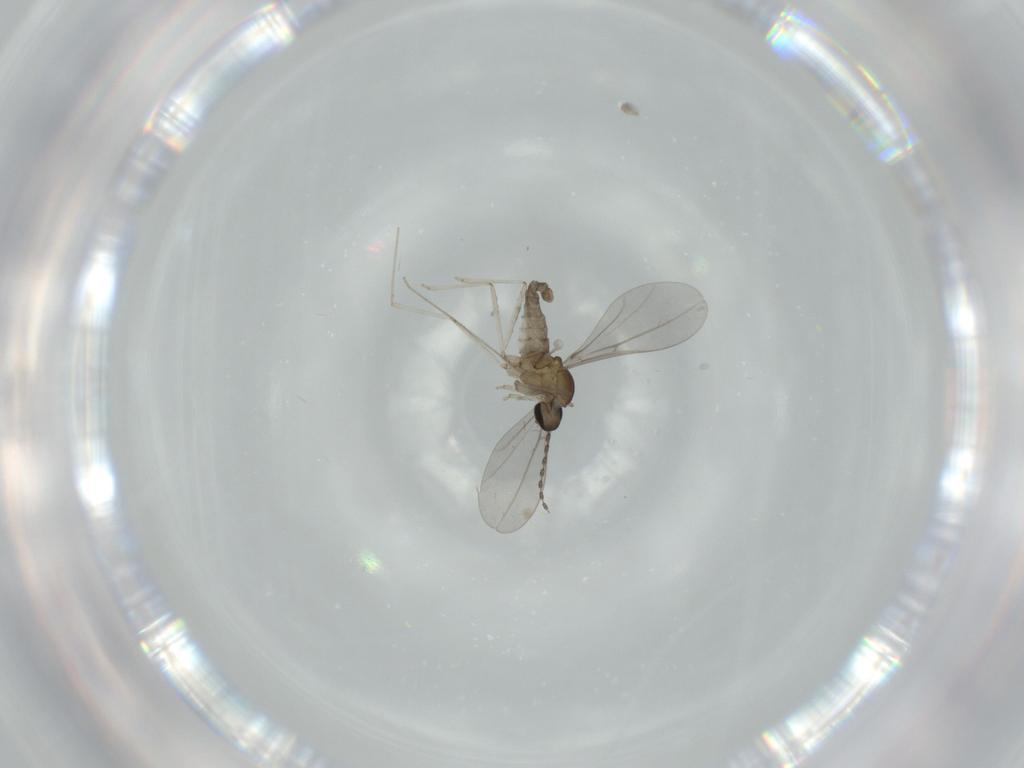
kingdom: Animalia
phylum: Arthropoda
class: Insecta
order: Diptera
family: Cecidomyiidae
